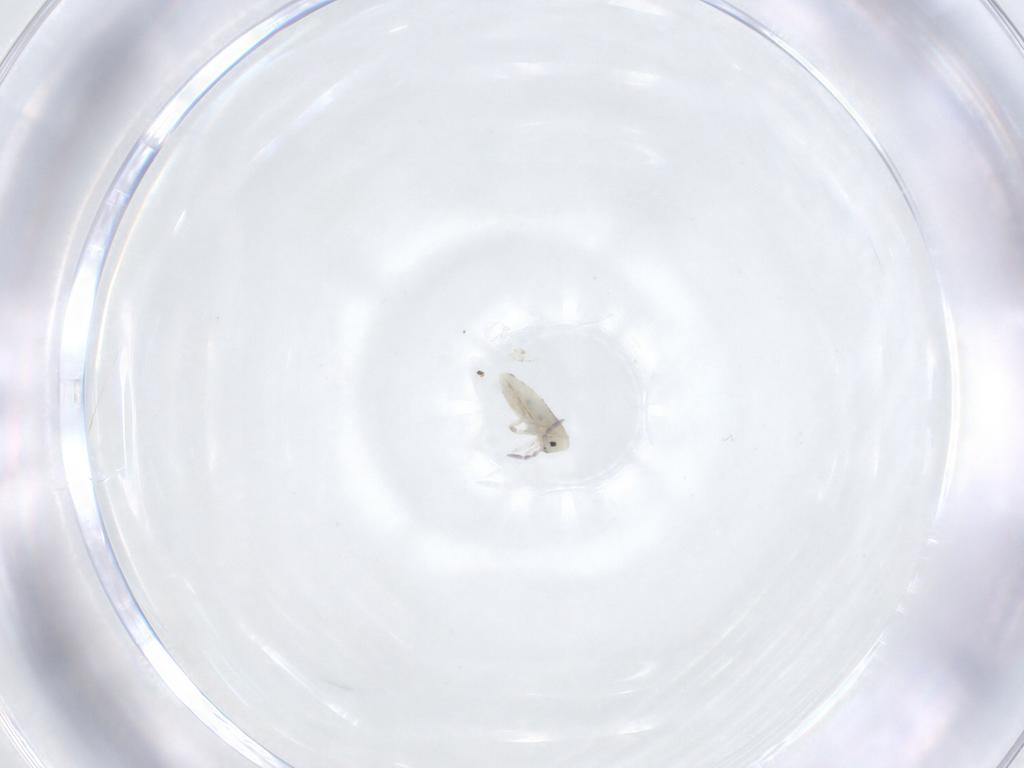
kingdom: Animalia
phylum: Arthropoda
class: Collembola
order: Entomobryomorpha
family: Entomobryidae
